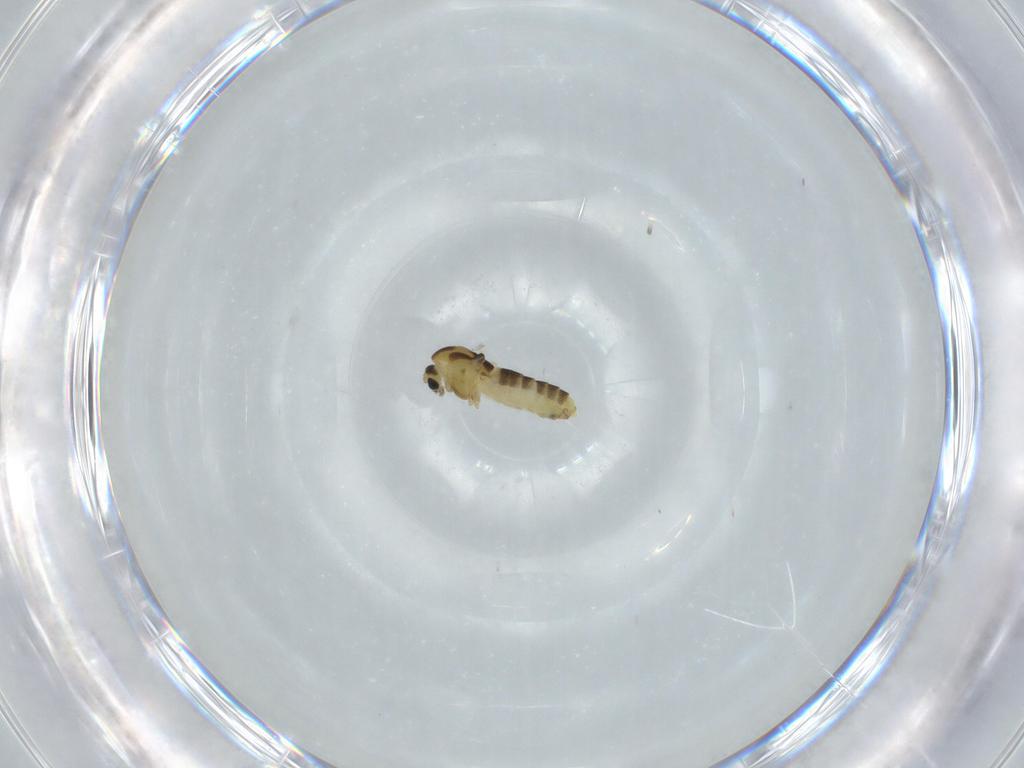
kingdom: Animalia
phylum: Arthropoda
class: Insecta
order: Diptera
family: Chironomidae
